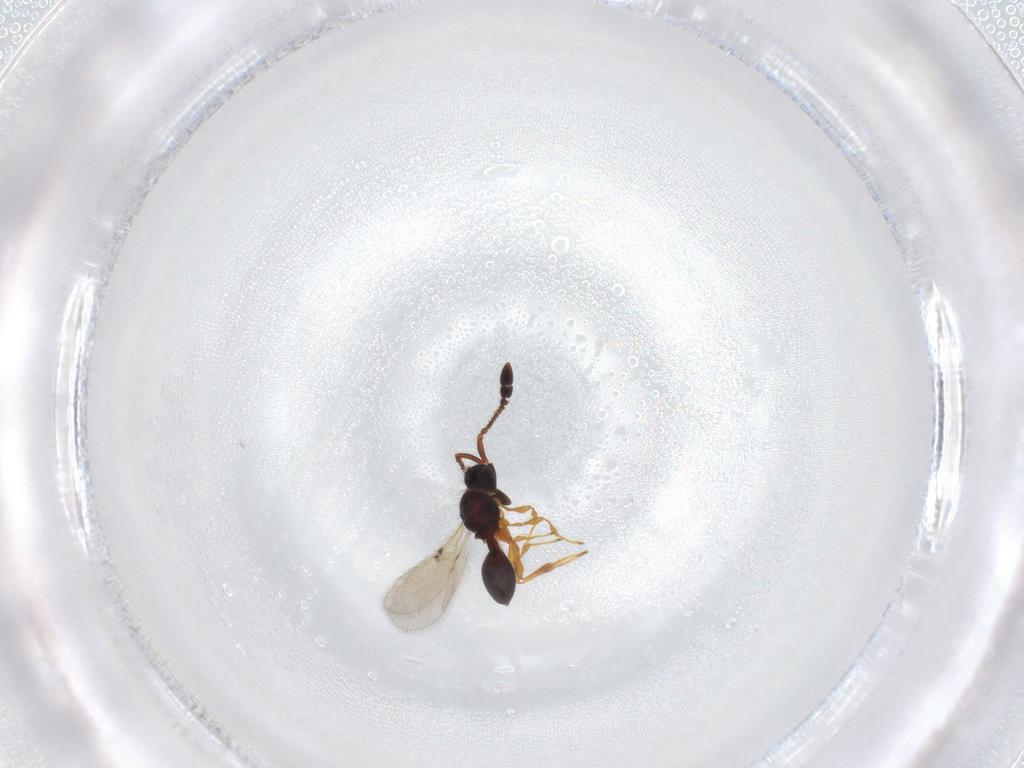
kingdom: Animalia
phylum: Arthropoda
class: Insecta
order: Hymenoptera
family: Diapriidae
